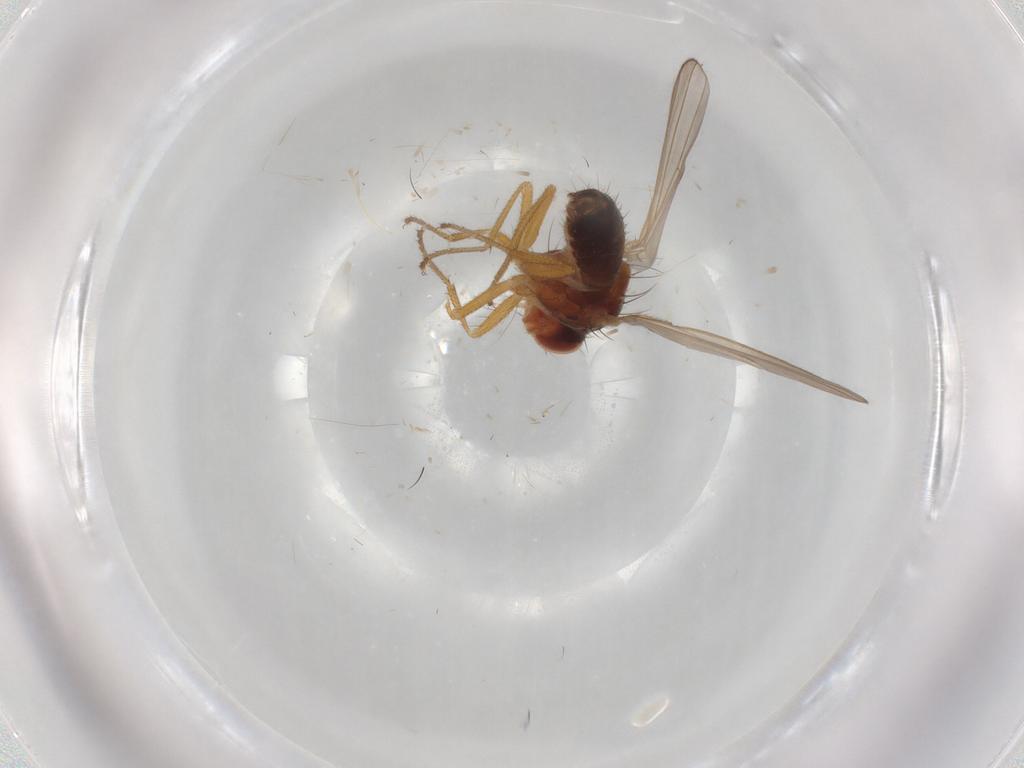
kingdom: Animalia
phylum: Arthropoda
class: Insecta
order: Diptera
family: Drosophilidae
